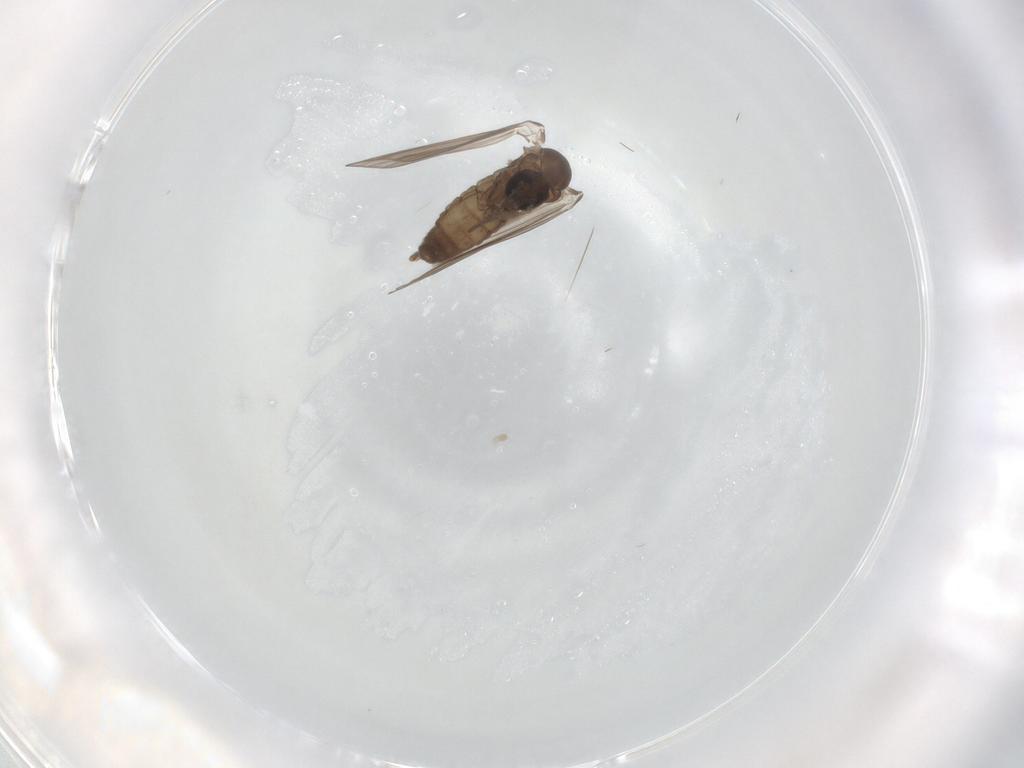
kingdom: Animalia
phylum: Arthropoda
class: Insecta
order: Diptera
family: Psychodidae
